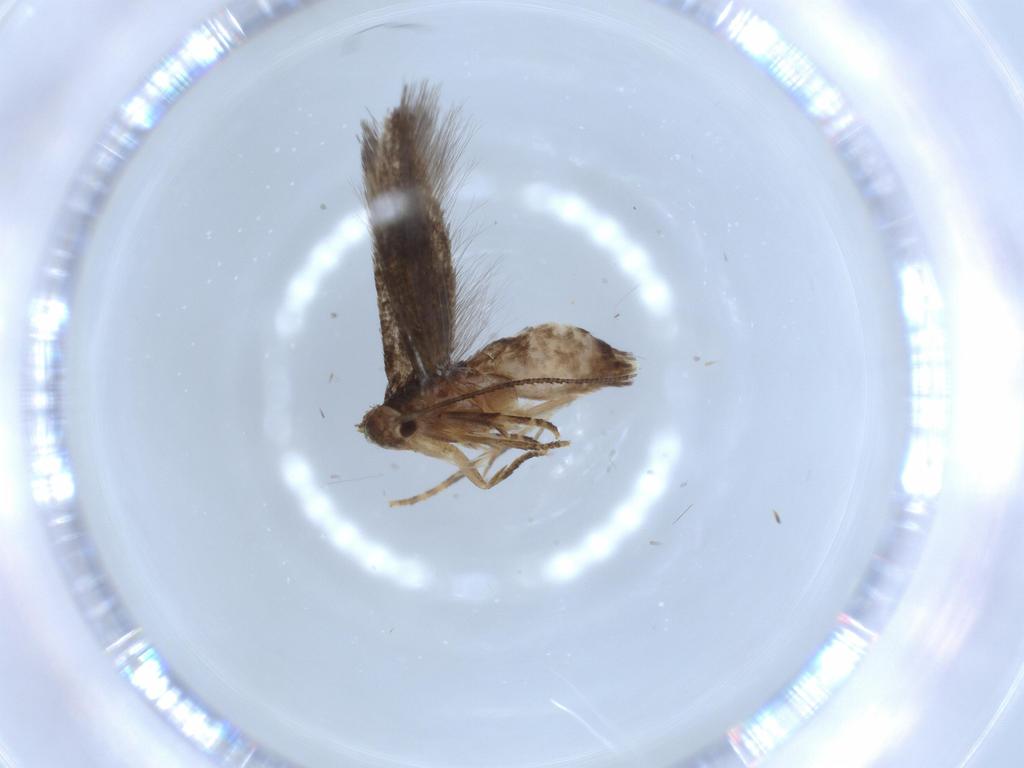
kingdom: Animalia
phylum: Arthropoda
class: Insecta
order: Lepidoptera
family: Gelechiidae
